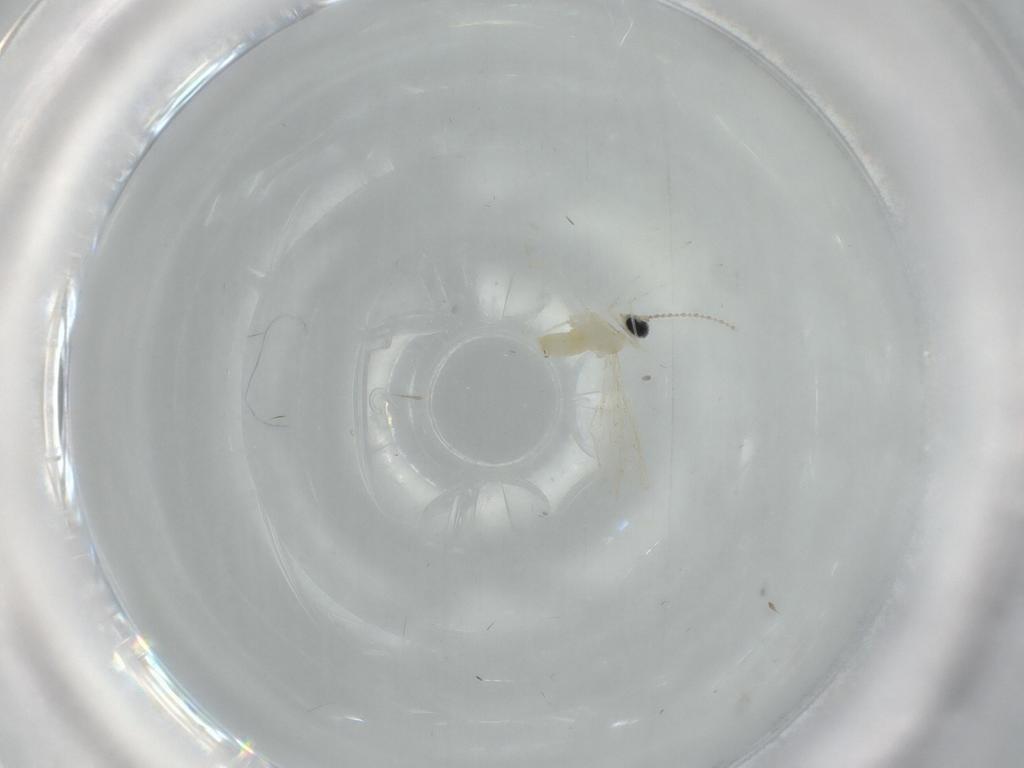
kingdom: Animalia
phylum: Arthropoda
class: Insecta
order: Diptera
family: Cecidomyiidae
